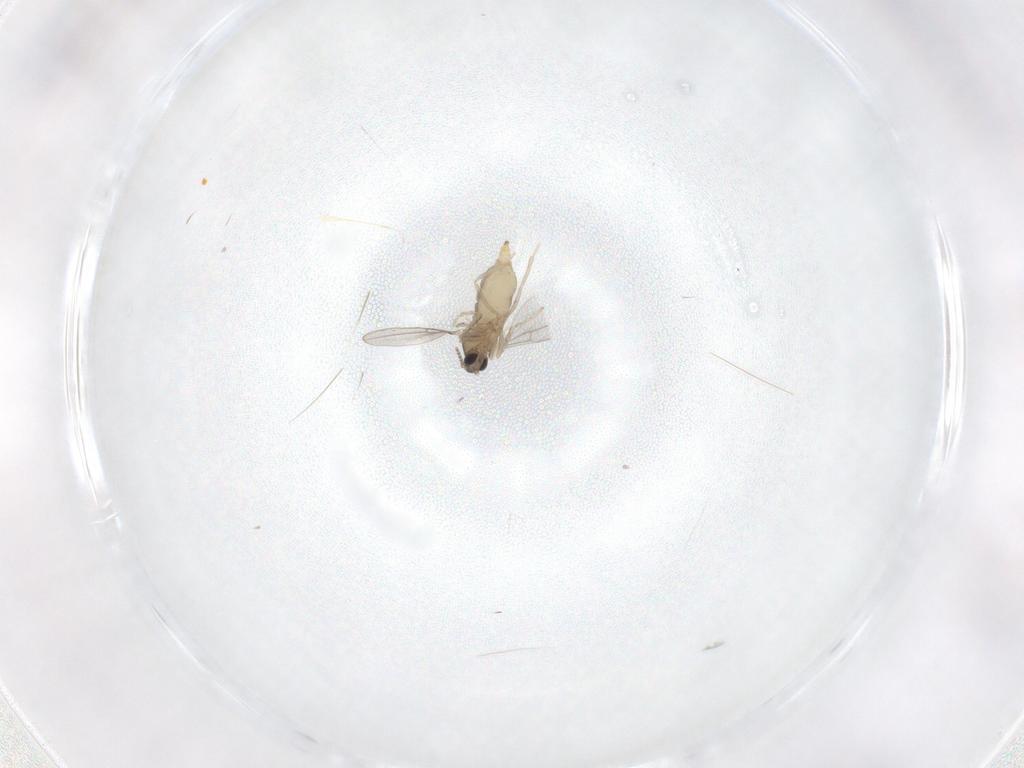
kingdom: Animalia
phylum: Arthropoda
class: Insecta
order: Diptera
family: Cecidomyiidae
